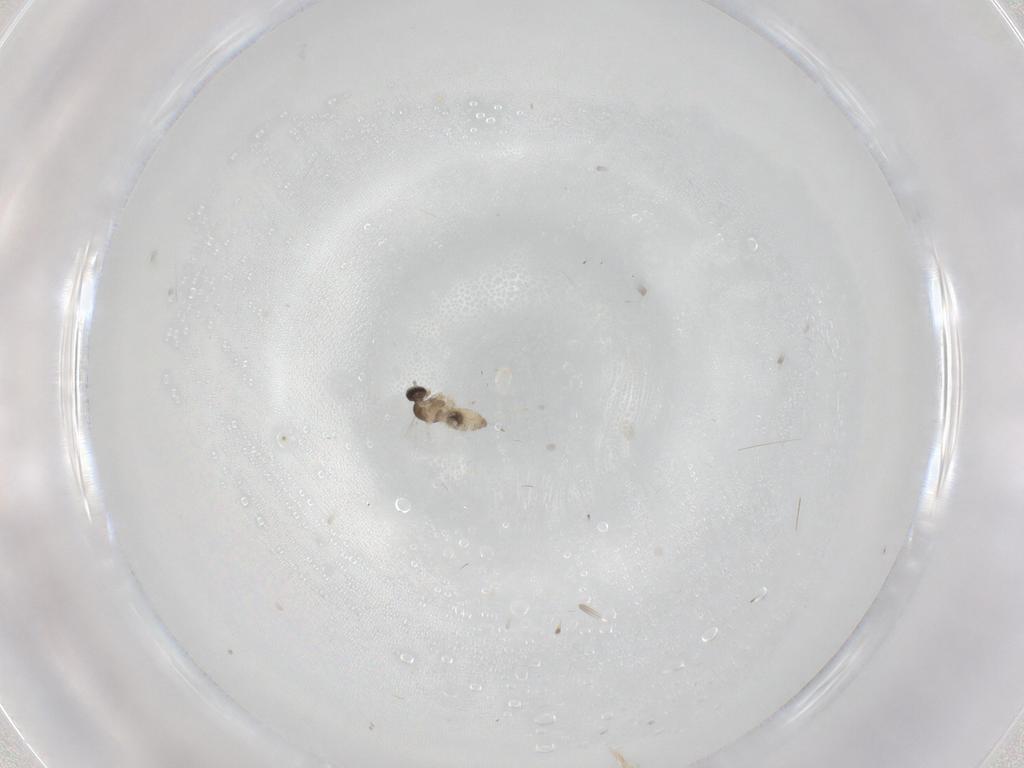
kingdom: Animalia
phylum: Arthropoda
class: Insecta
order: Diptera
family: Cecidomyiidae
